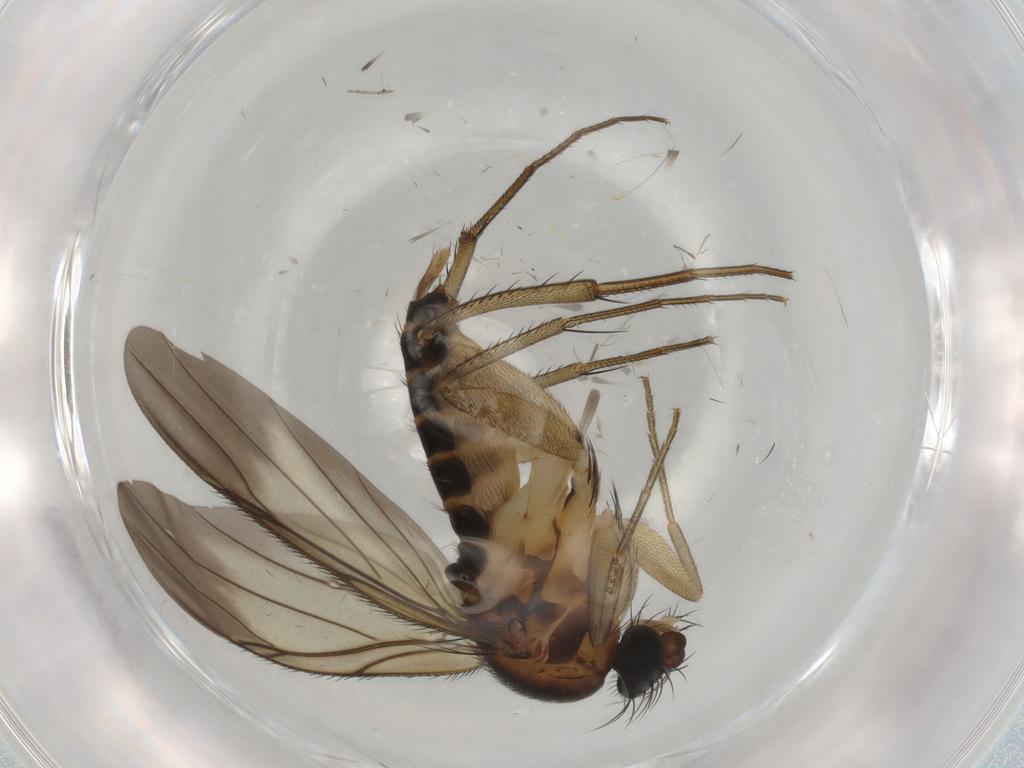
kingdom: Animalia
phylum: Arthropoda
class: Insecta
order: Diptera
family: Phoridae
